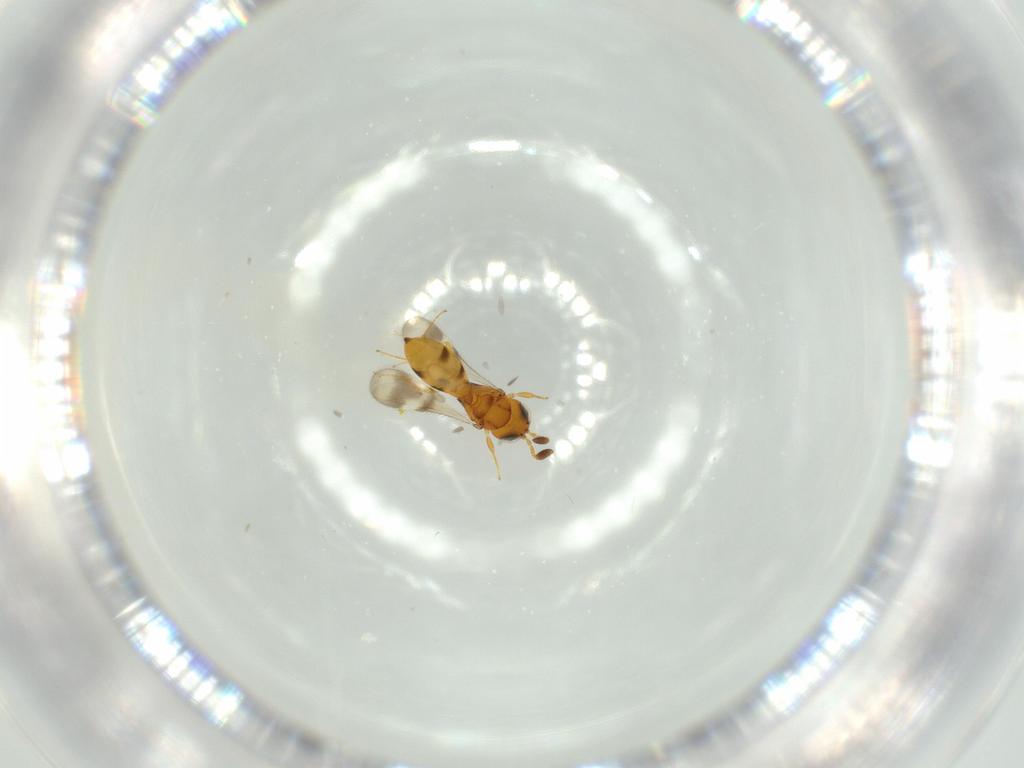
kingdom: Animalia
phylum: Arthropoda
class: Insecta
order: Hymenoptera
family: Scelionidae
